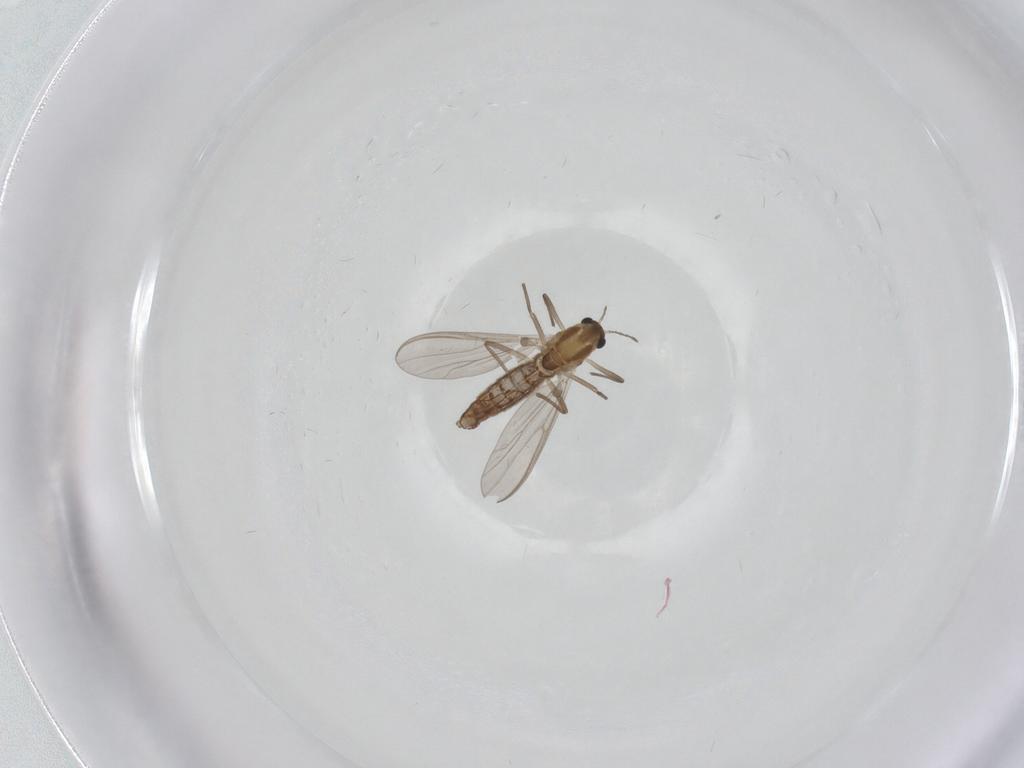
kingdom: Animalia
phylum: Arthropoda
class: Insecta
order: Diptera
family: Chironomidae
